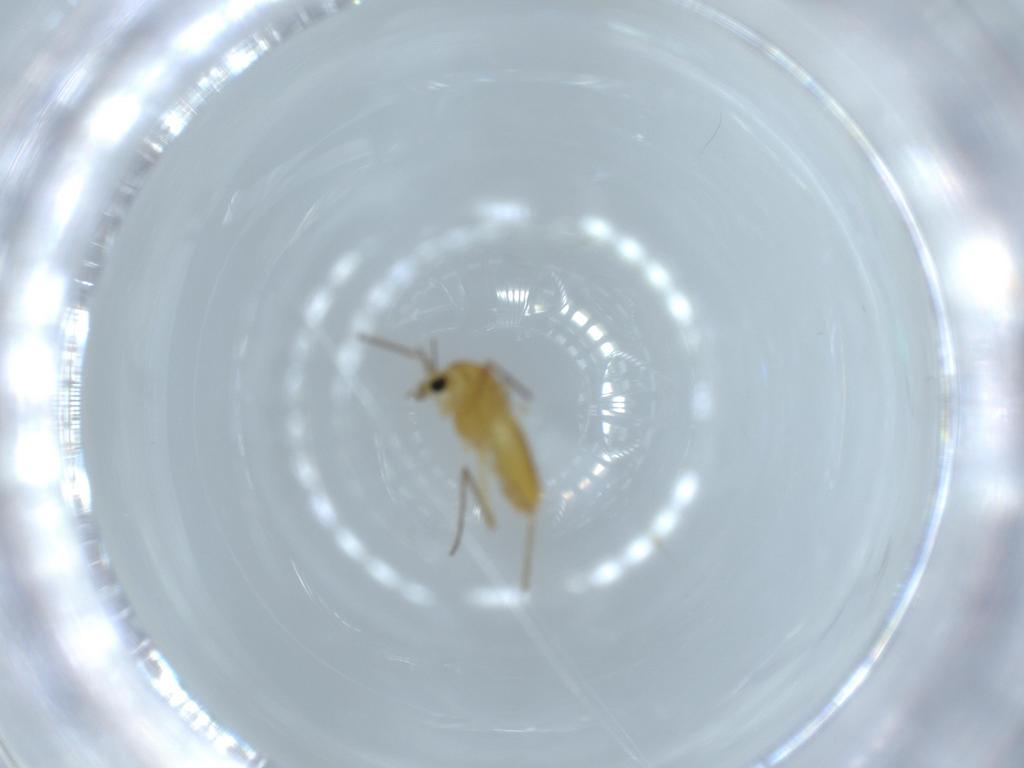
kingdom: Animalia
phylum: Arthropoda
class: Insecta
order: Diptera
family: Chironomidae
